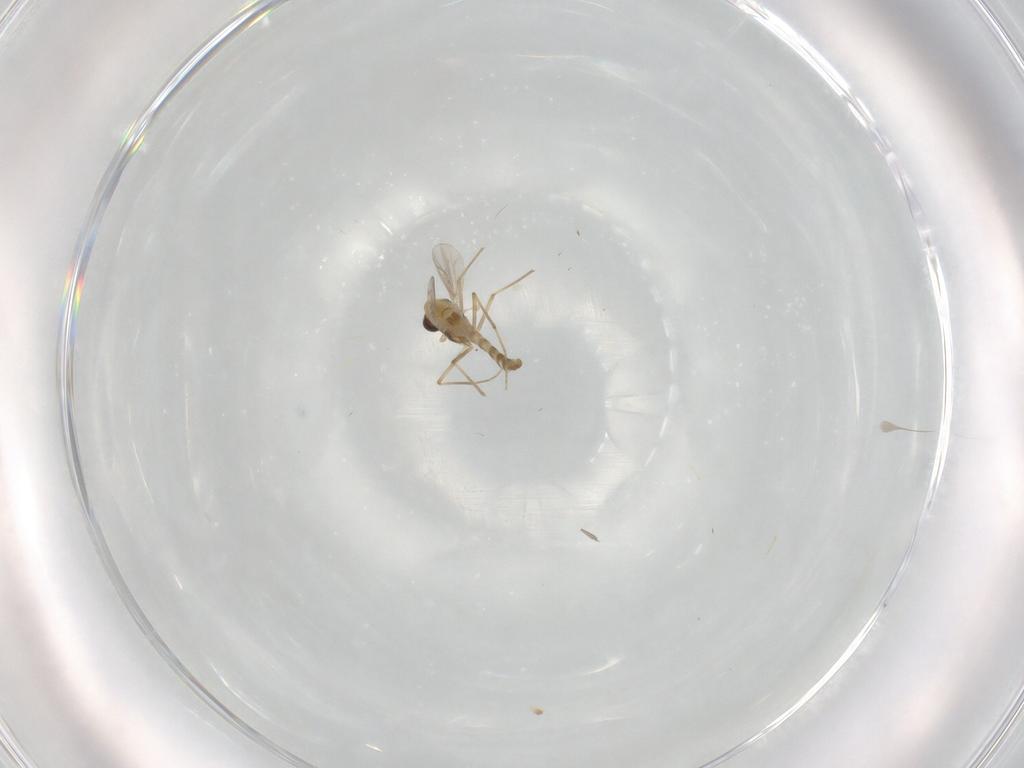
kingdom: Animalia
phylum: Arthropoda
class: Insecta
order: Diptera
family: Chironomidae
